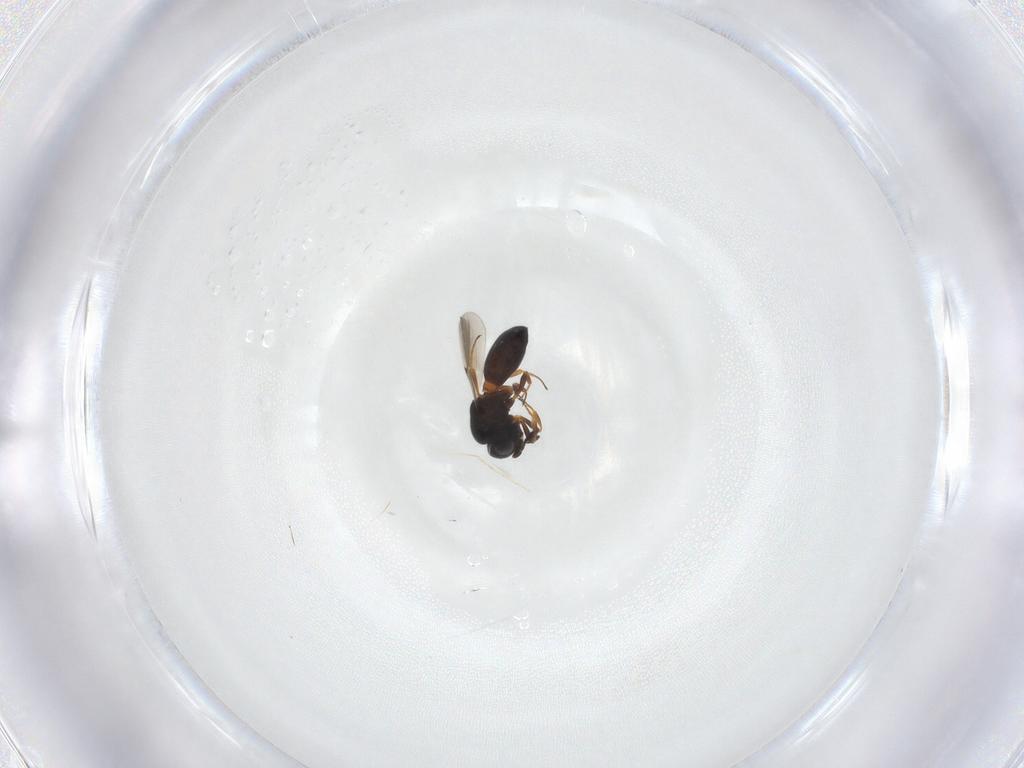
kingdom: Animalia
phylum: Arthropoda
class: Insecta
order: Hymenoptera
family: Scelionidae
